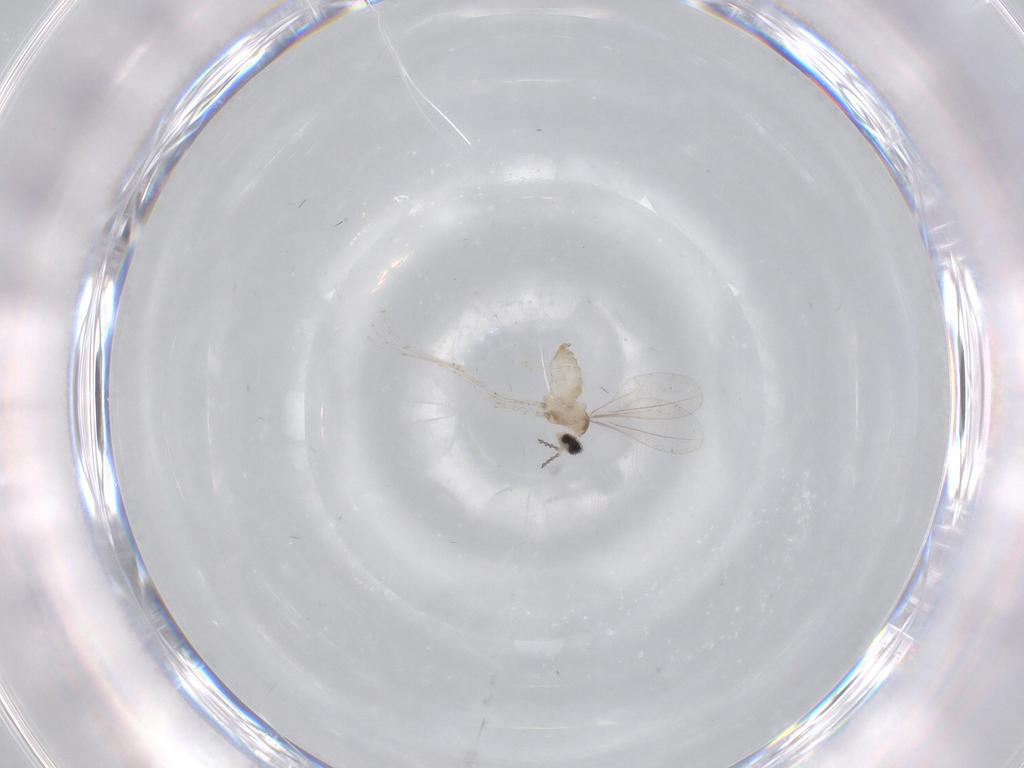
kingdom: Animalia
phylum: Arthropoda
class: Insecta
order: Diptera
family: Cecidomyiidae
